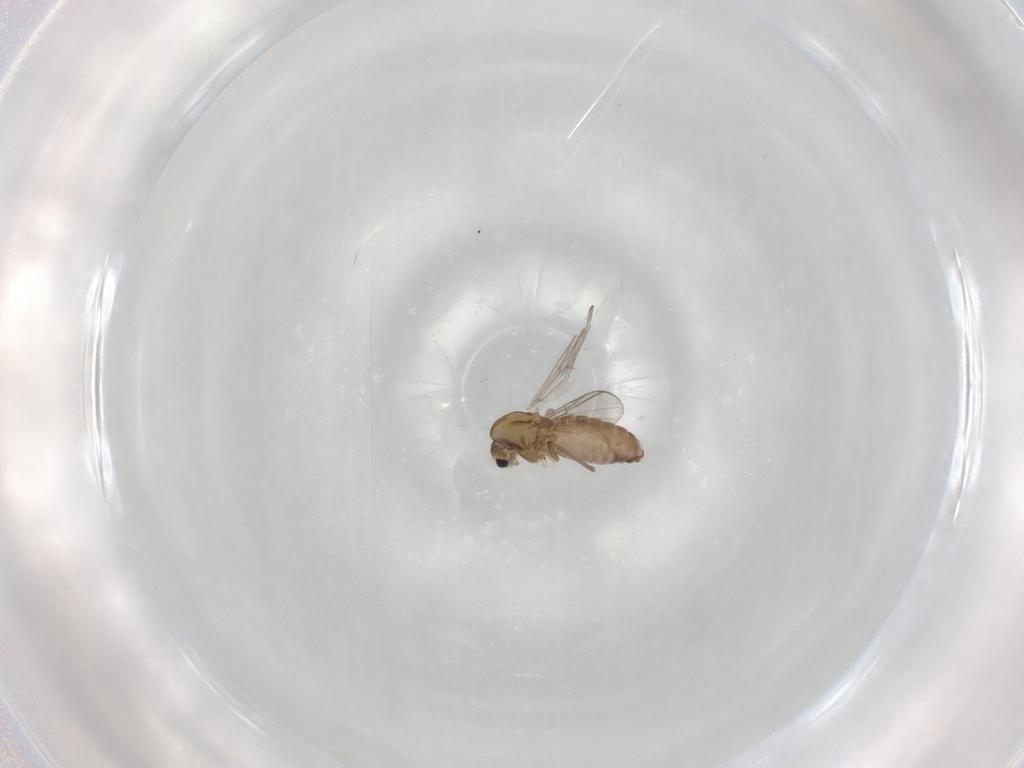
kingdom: Animalia
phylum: Arthropoda
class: Insecta
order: Diptera
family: Chironomidae
